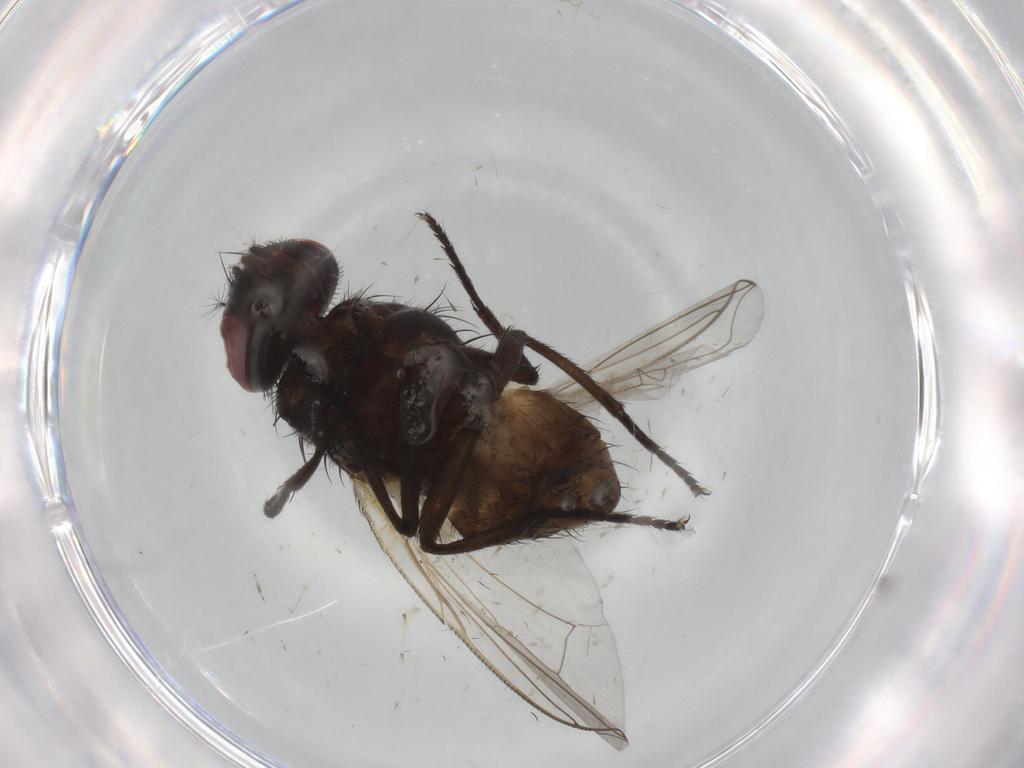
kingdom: Animalia
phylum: Arthropoda
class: Insecta
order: Diptera
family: Muscidae
